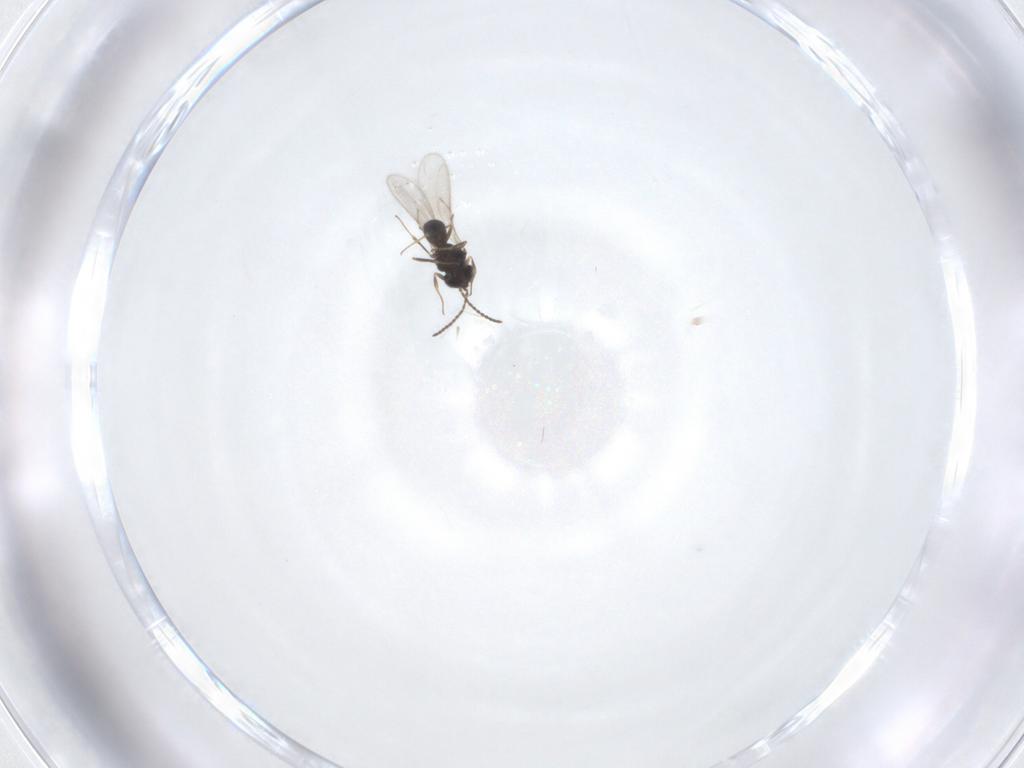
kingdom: Animalia
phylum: Arthropoda
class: Insecta
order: Hymenoptera
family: Scelionidae
